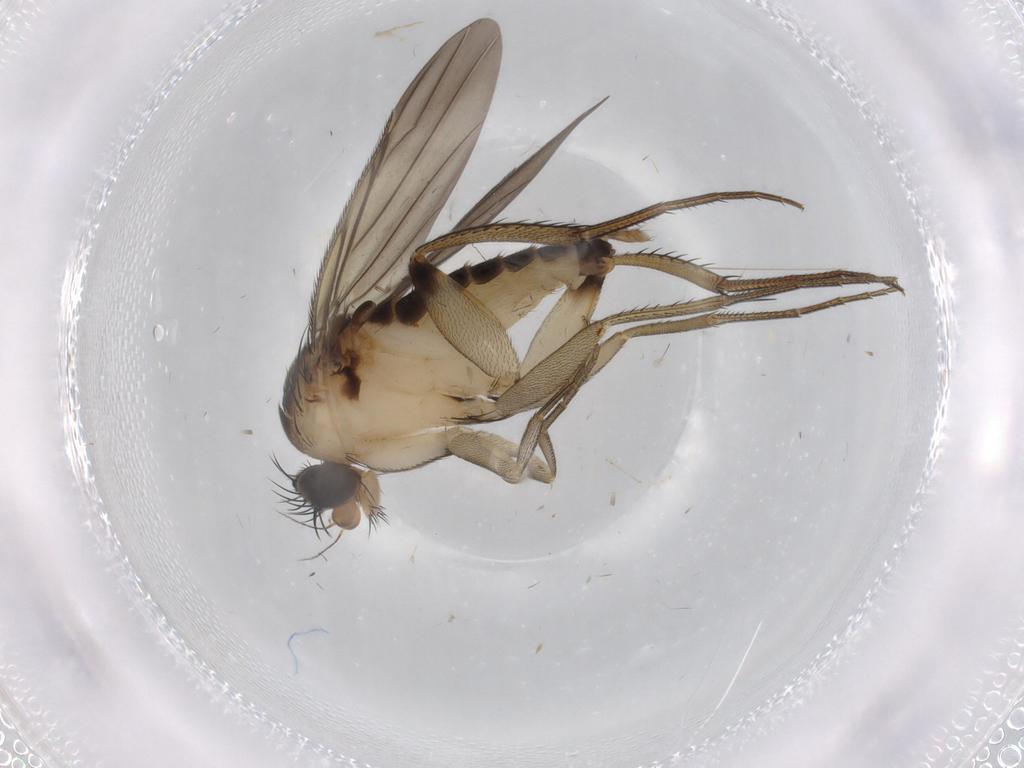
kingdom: Animalia
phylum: Arthropoda
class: Insecta
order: Diptera
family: Phoridae
